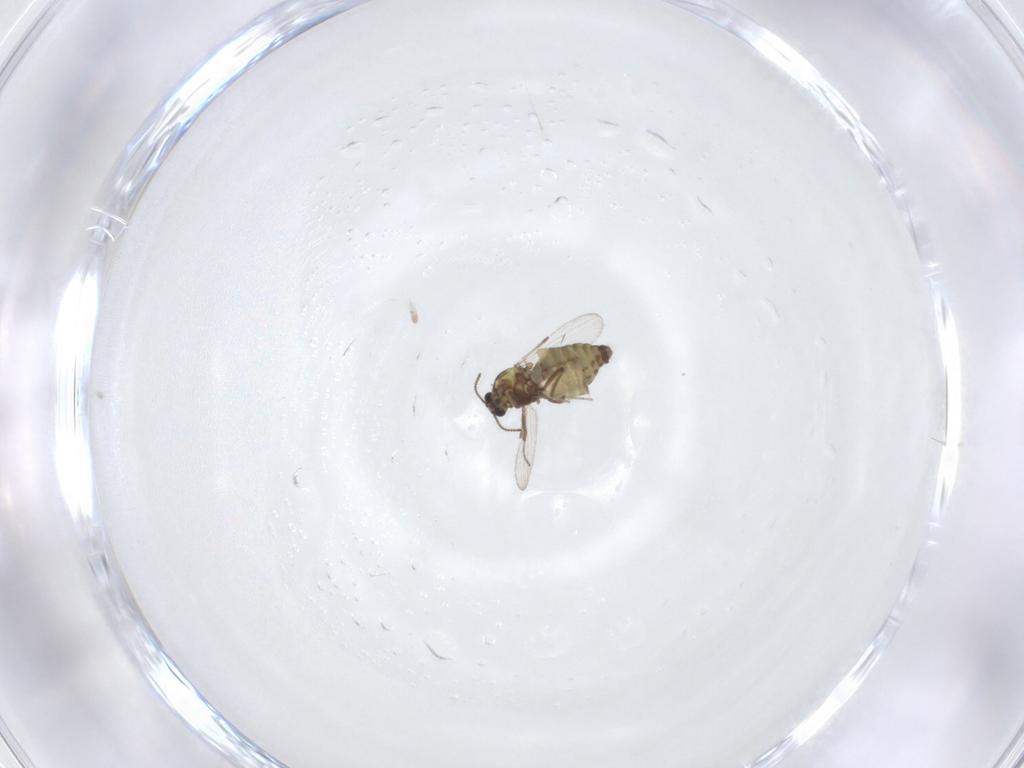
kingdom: Animalia
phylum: Arthropoda
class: Insecta
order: Diptera
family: Ceratopogonidae
